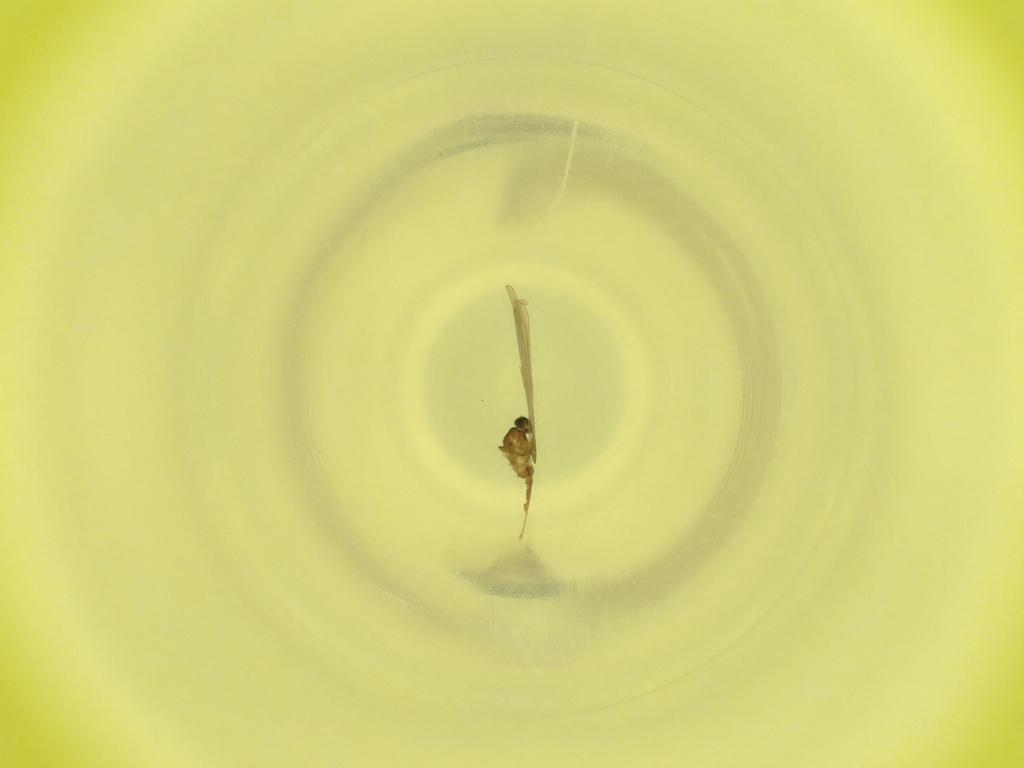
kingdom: Animalia
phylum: Arthropoda
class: Insecta
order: Diptera
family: Cecidomyiidae
